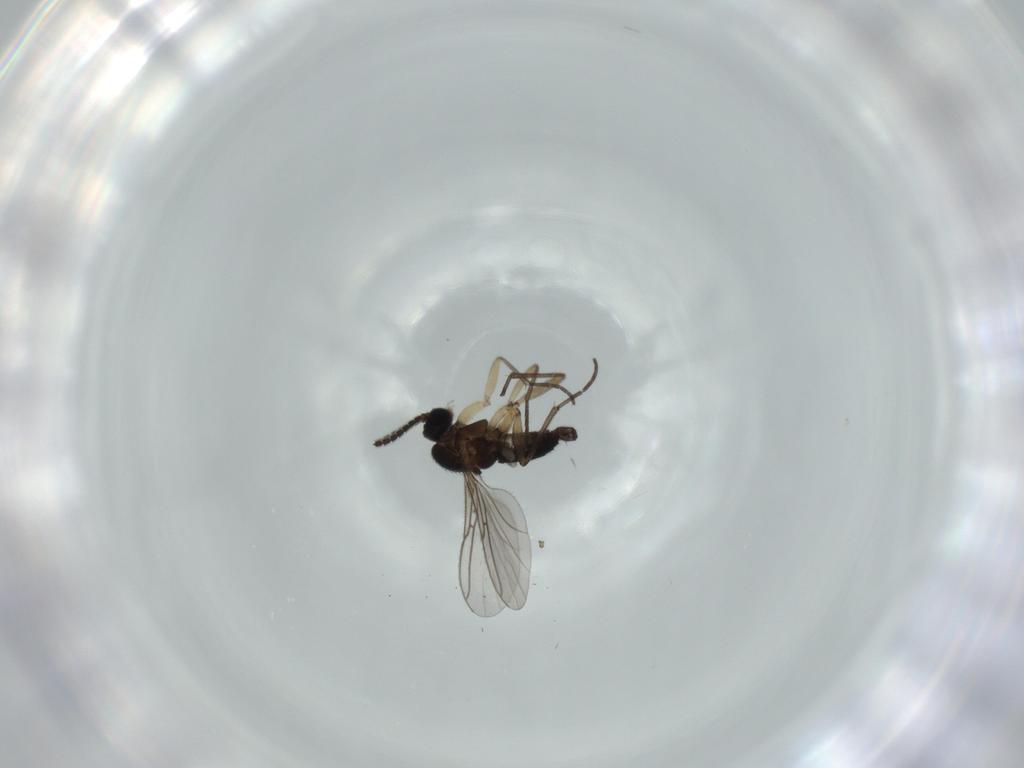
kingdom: Animalia
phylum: Arthropoda
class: Insecta
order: Diptera
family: Sciaridae
